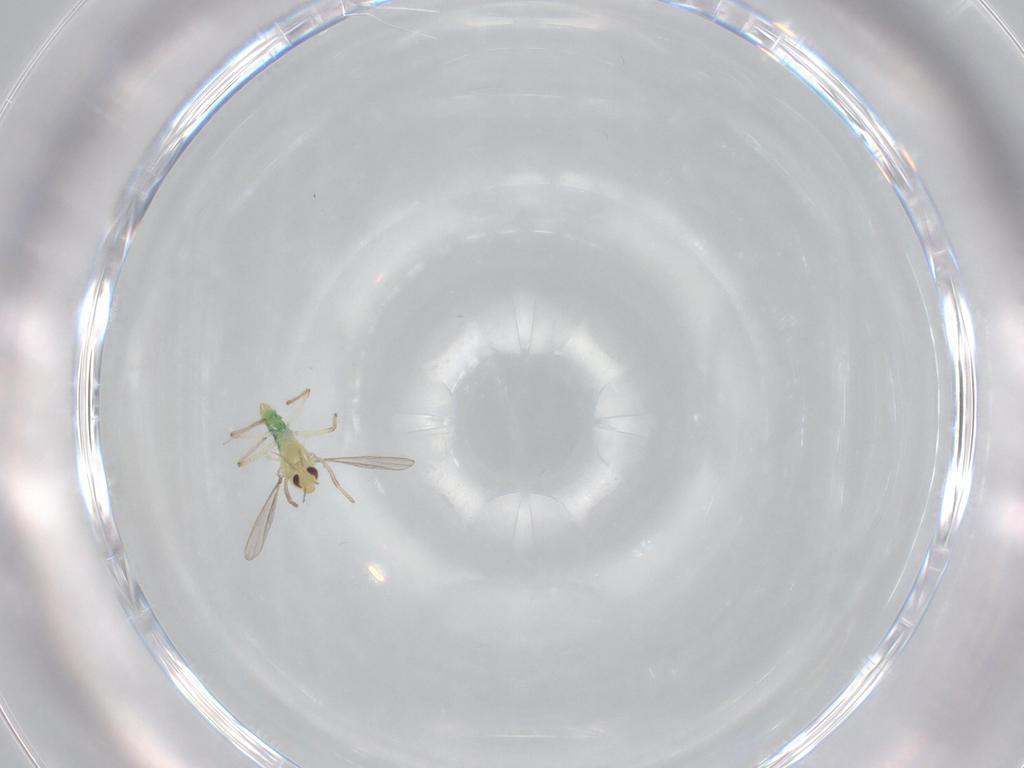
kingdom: Animalia
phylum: Arthropoda
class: Insecta
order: Diptera
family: Chironomidae
